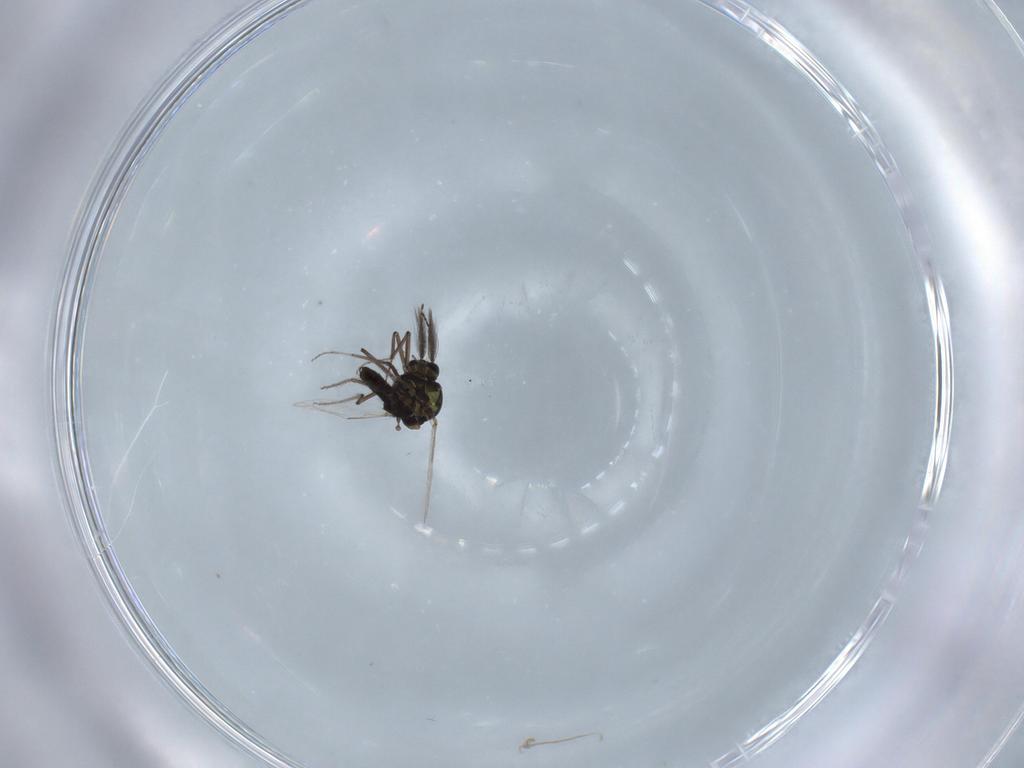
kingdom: Animalia
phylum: Arthropoda
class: Insecta
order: Diptera
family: Ceratopogonidae
